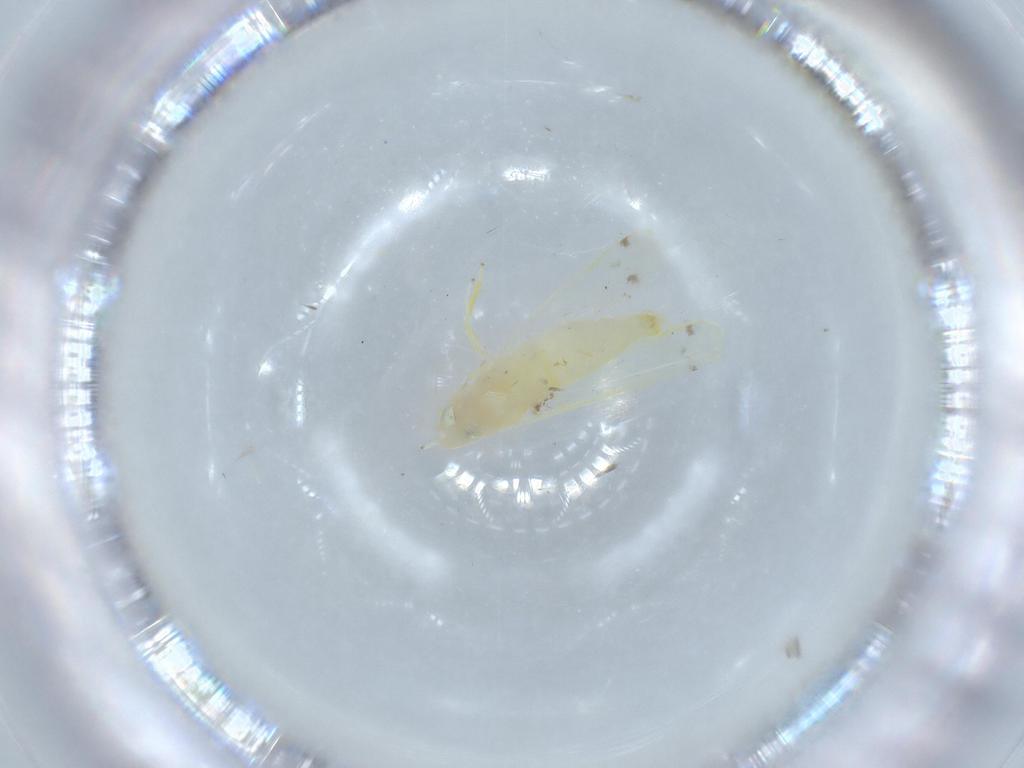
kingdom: Animalia
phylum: Arthropoda
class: Insecta
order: Hemiptera
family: Cicadellidae
